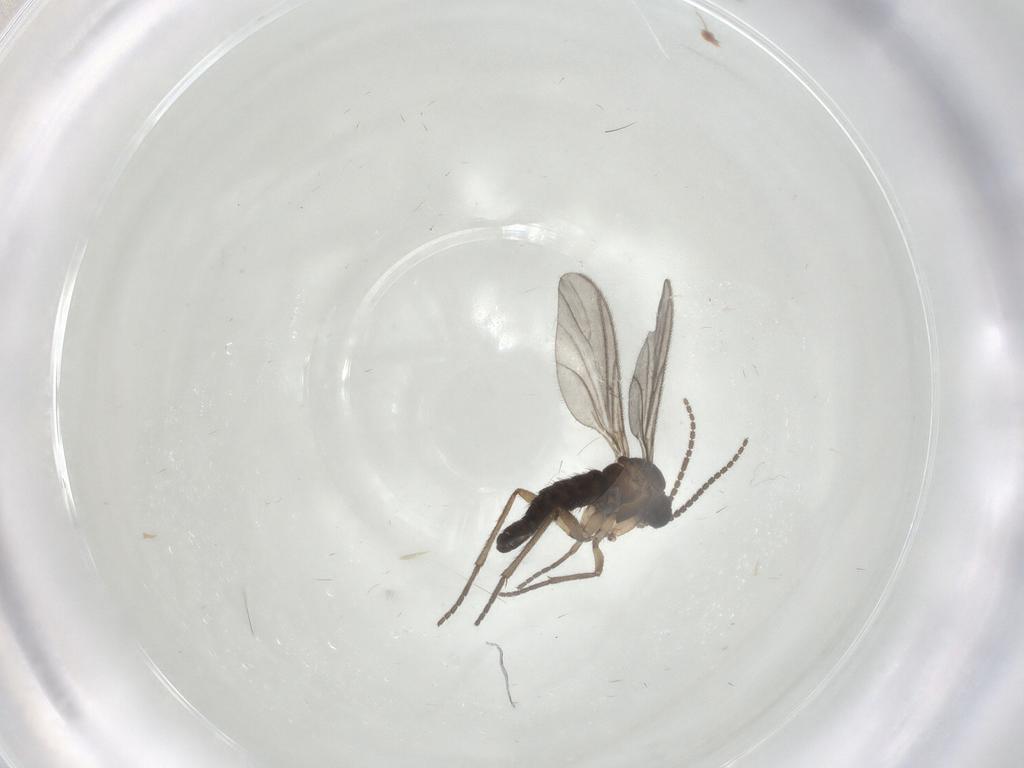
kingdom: Animalia
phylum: Arthropoda
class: Insecta
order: Diptera
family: Sciaridae
